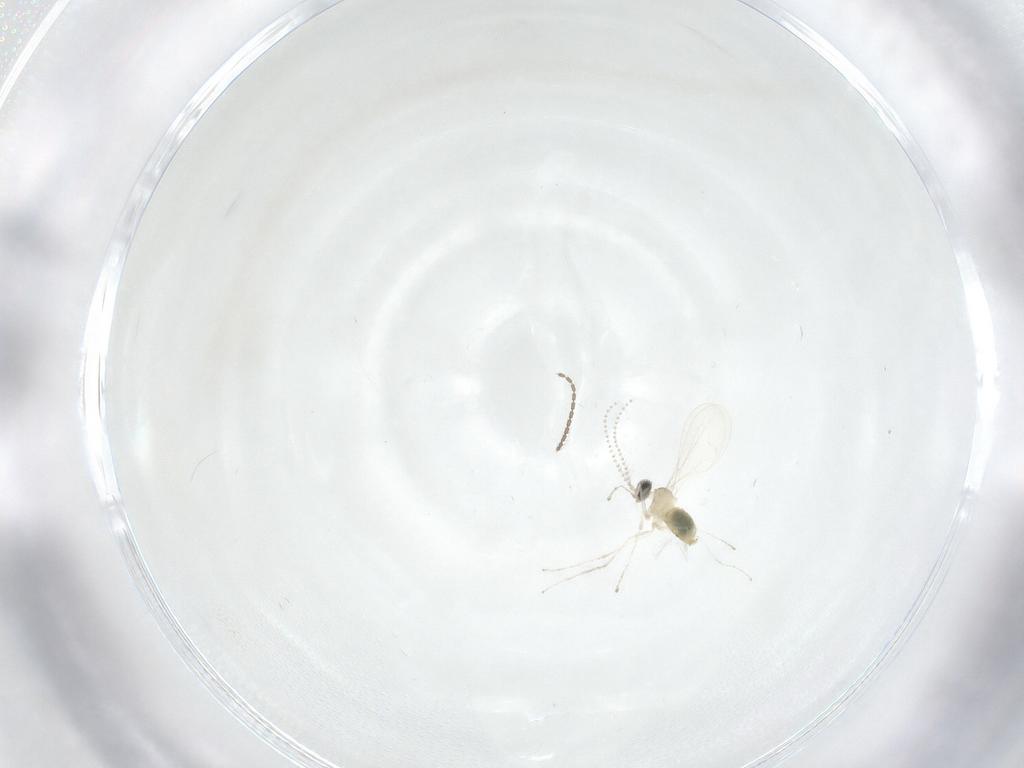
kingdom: Animalia
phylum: Arthropoda
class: Insecta
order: Diptera
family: Cecidomyiidae
